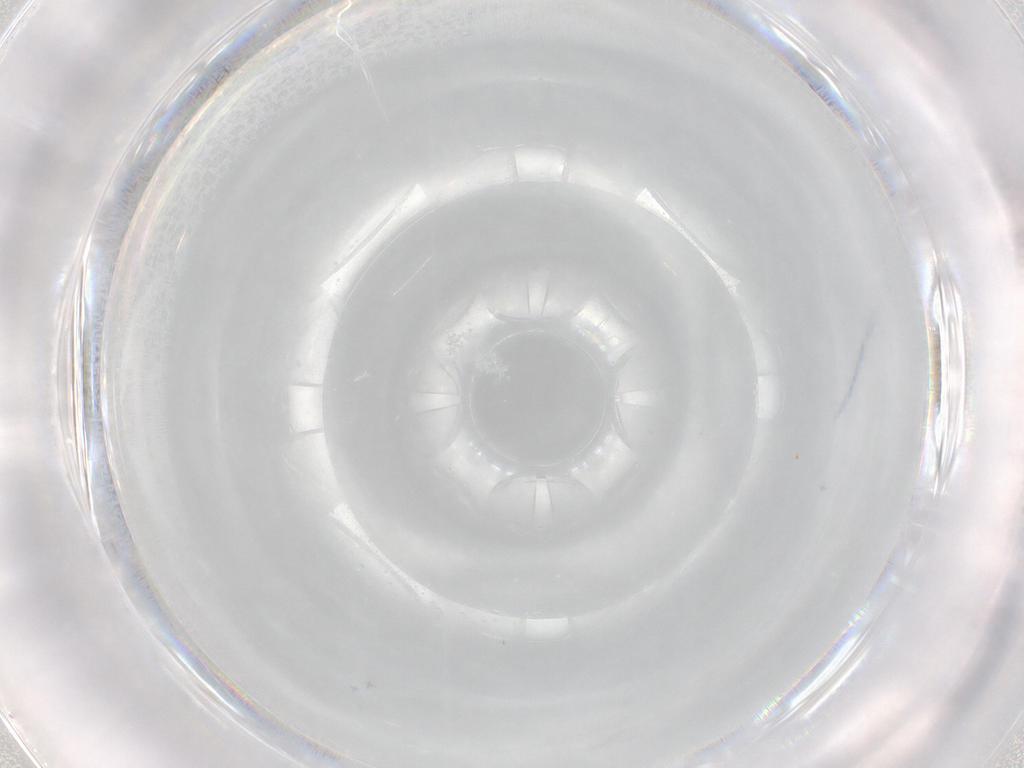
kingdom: Animalia
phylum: Arthropoda
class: Insecta
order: Diptera
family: Scatopsidae
